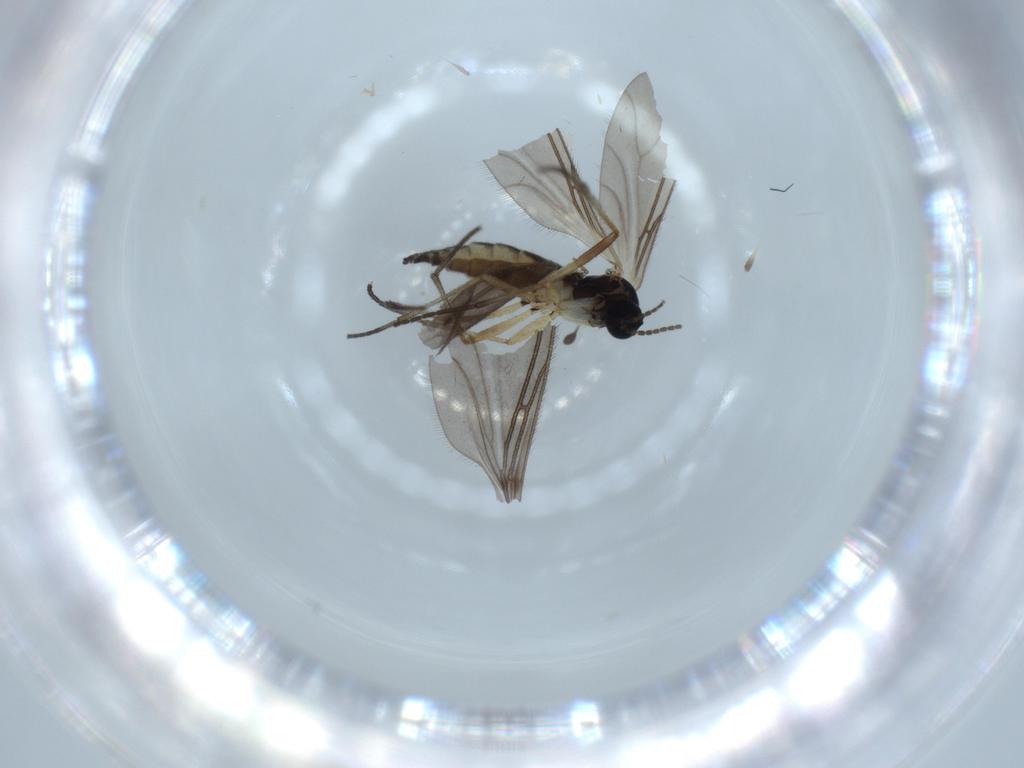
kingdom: Animalia
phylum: Arthropoda
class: Insecta
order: Diptera
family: Sciaridae
